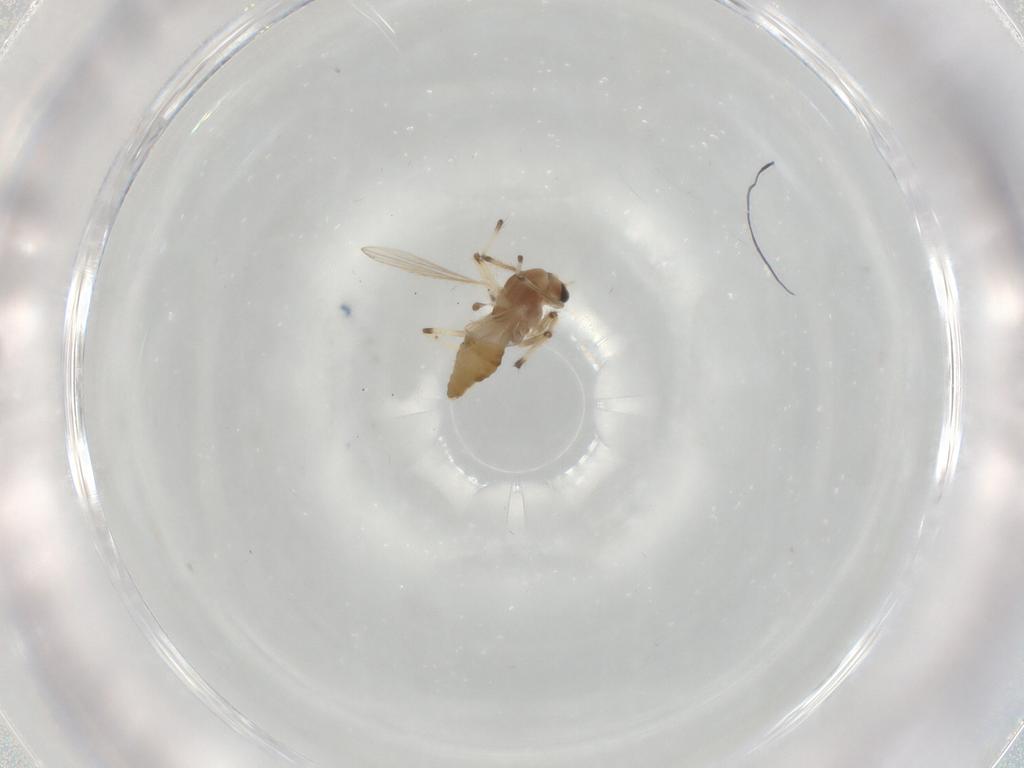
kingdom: Animalia
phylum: Arthropoda
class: Insecta
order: Diptera
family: Chironomidae
